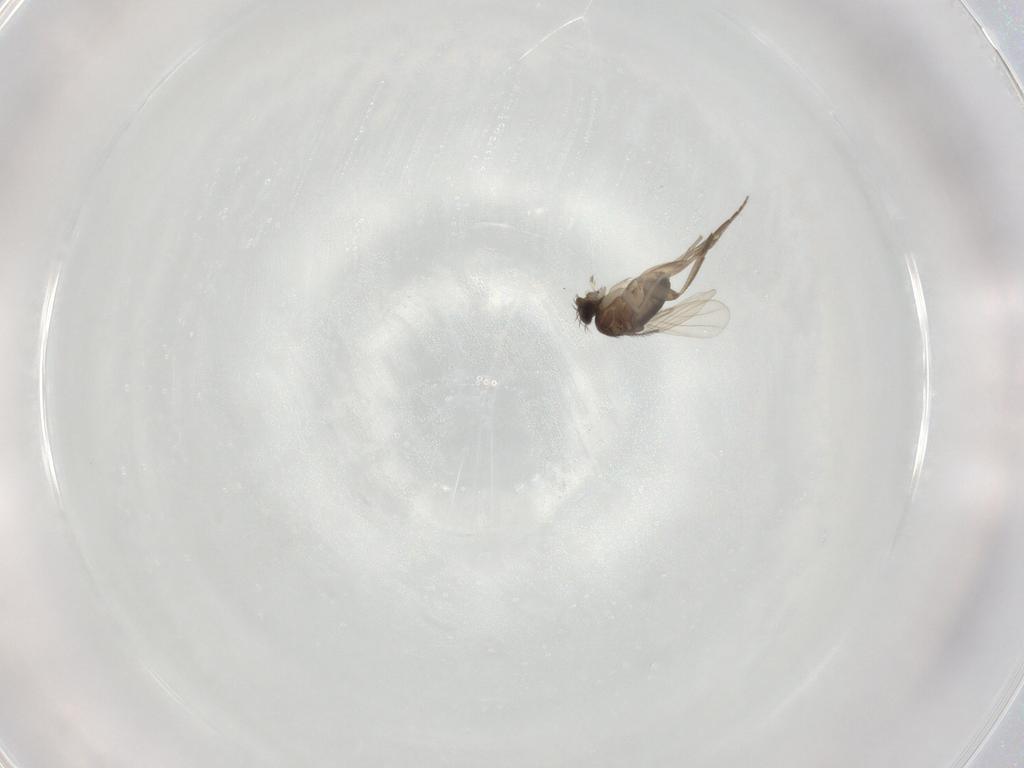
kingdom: Animalia
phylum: Arthropoda
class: Insecta
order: Diptera
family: Phoridae
